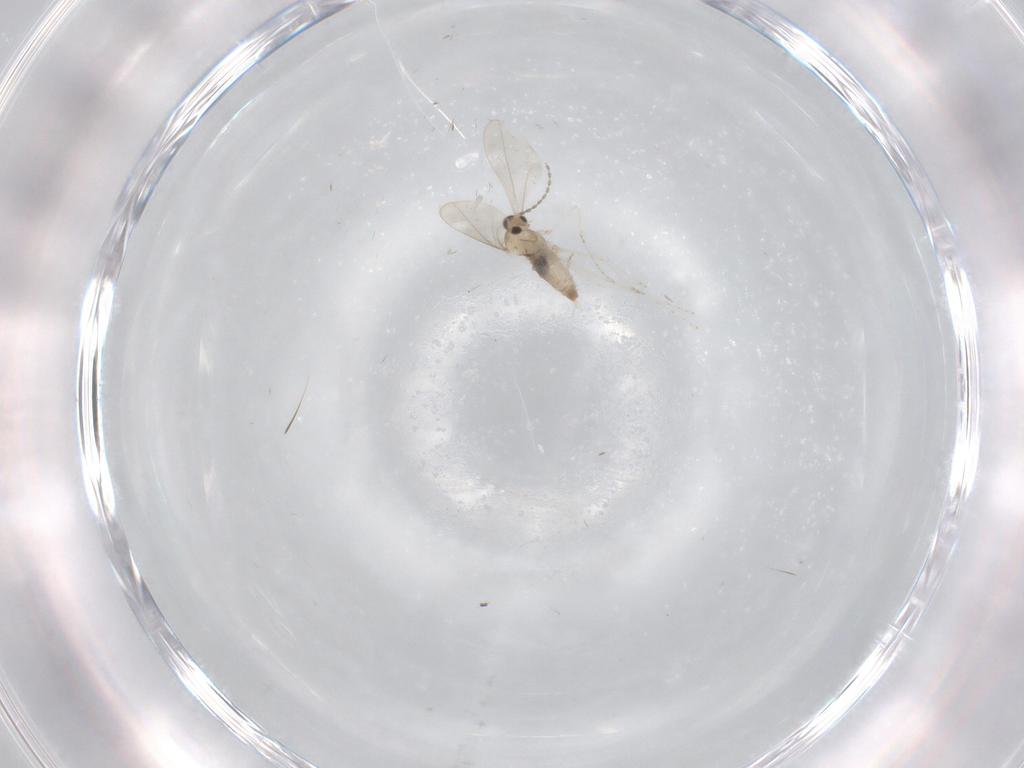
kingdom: Animalia
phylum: Arthropoda
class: Insecta
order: Diptera
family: Cecidomyiidae
